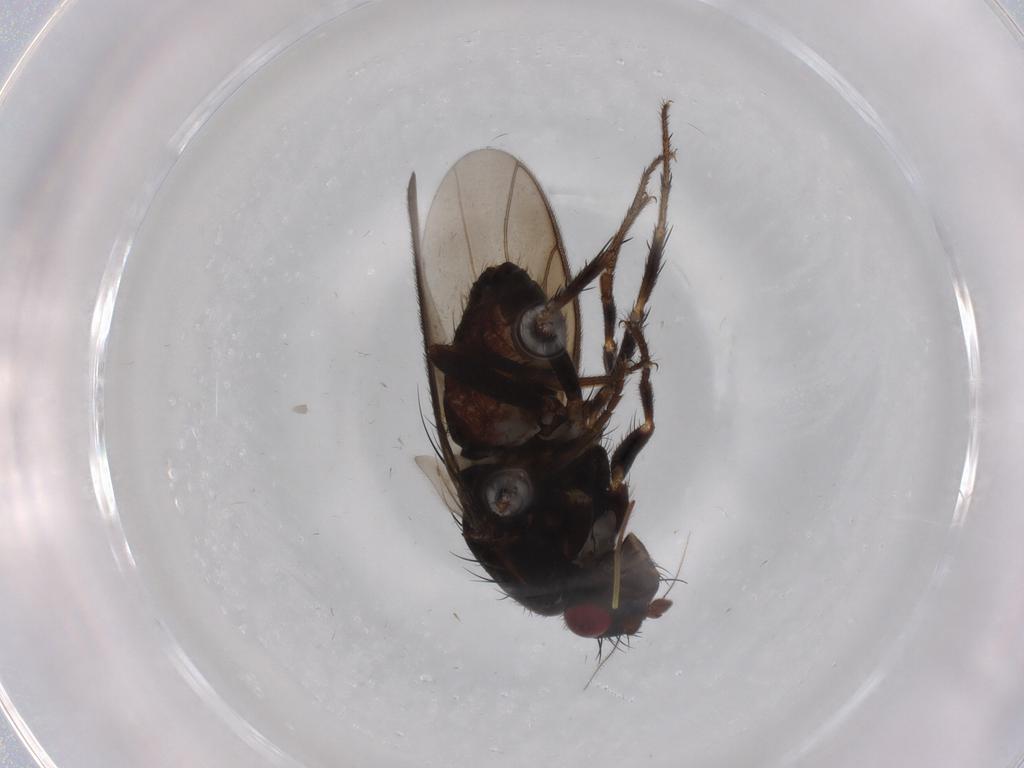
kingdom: Animalia
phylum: Arthropoda
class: Insecta
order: Diptera
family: Sphaeroceridae
